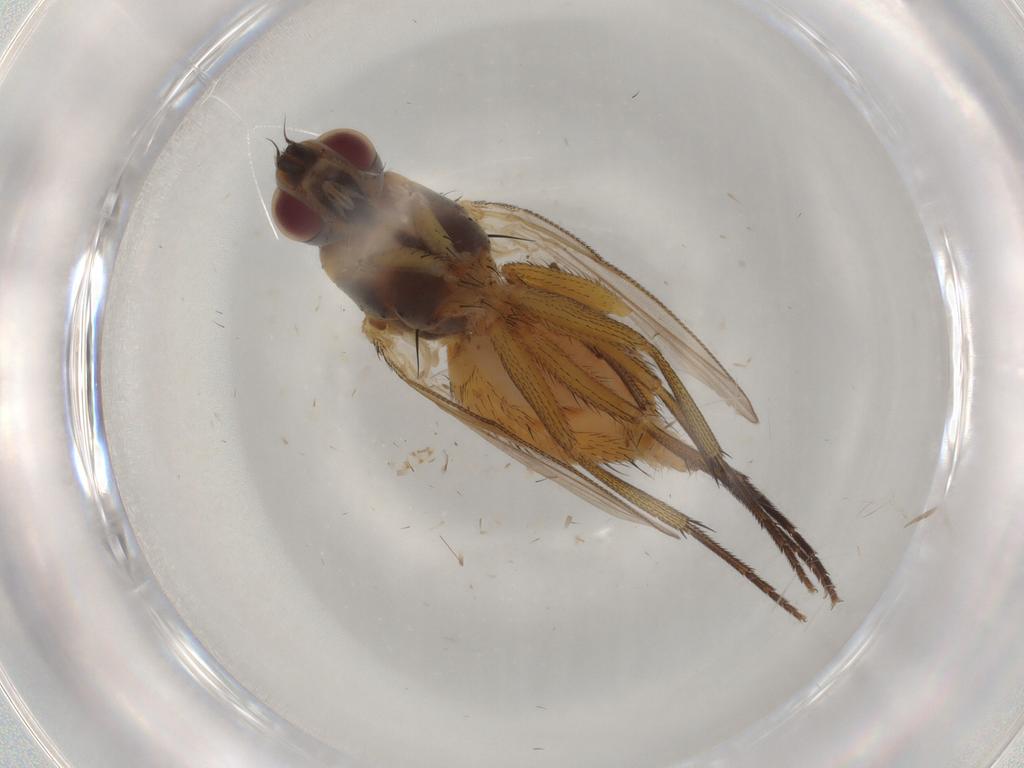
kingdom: Animalia
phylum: Arthropoda
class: Insecta
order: Diptera
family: Muscidae
